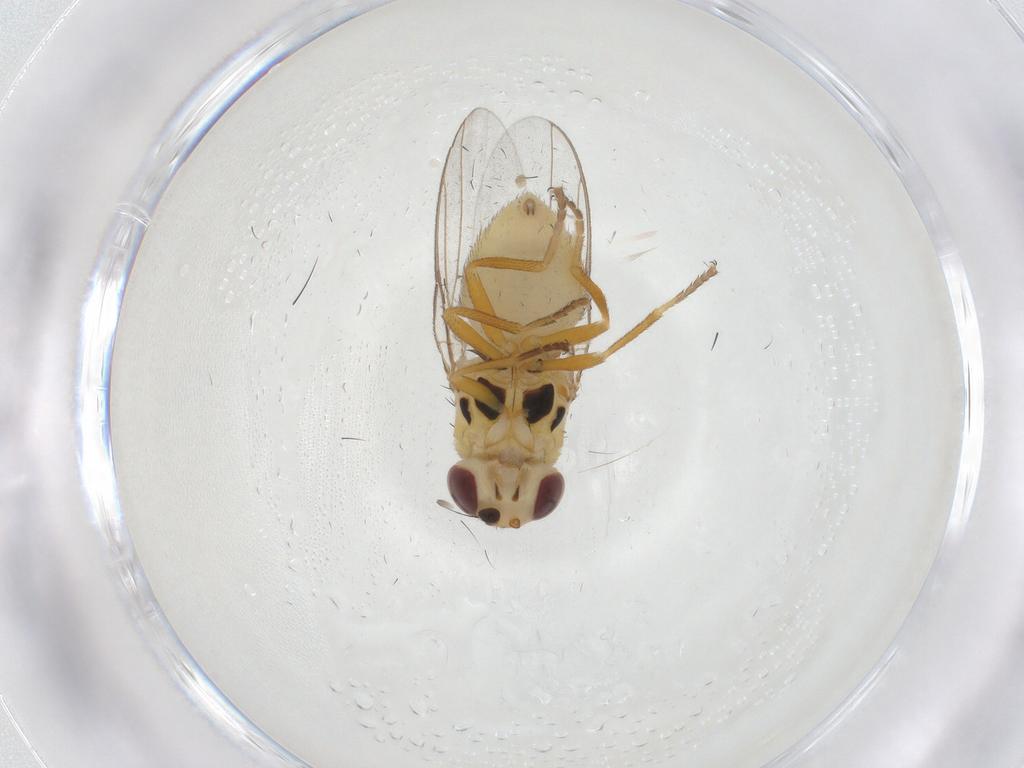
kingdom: Animalia
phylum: Arthropoda
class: Insecta
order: Diptera
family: Chloropidae
